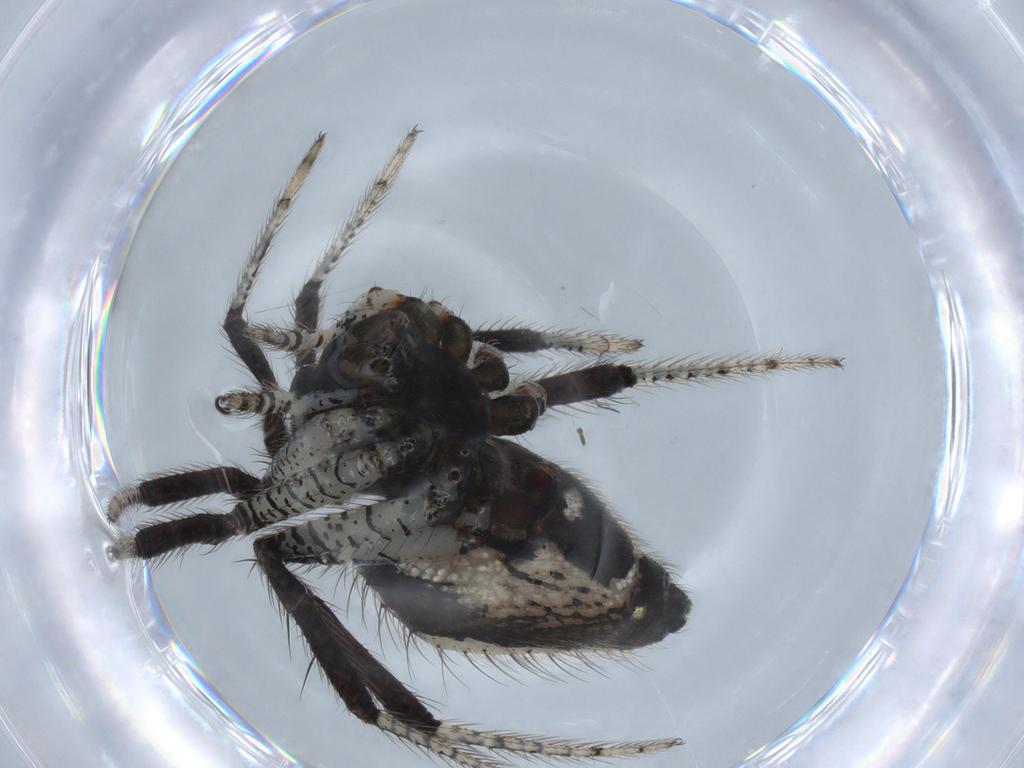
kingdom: Animalia
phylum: Arthropoda
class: Arachnida
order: Araneae
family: Theridiidae
